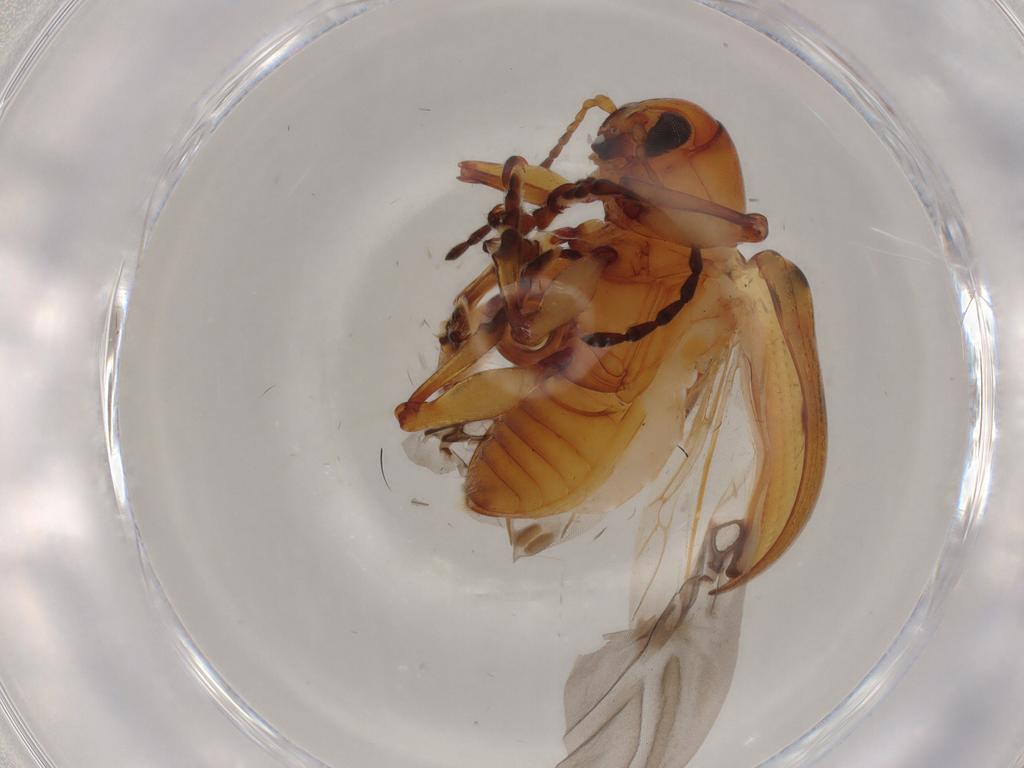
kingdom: Animalia
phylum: Arthropoda
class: Insecta
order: Coleoptera
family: Chrysomelidae
